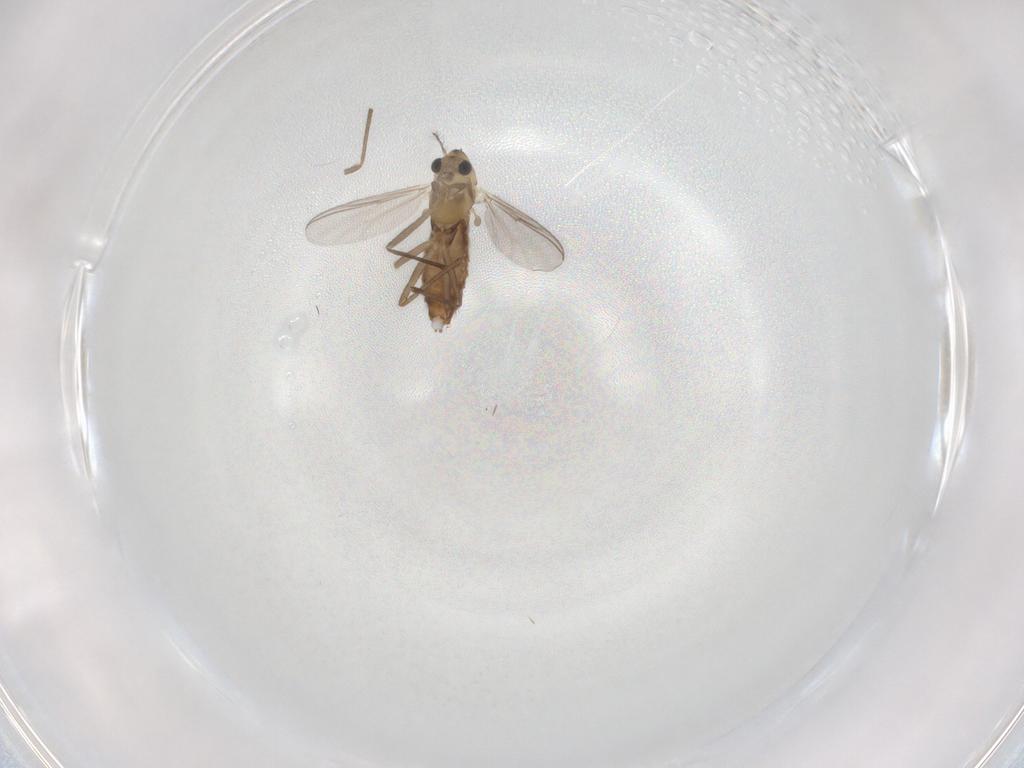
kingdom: Animalia
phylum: Arthropoda
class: Insecta
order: Diptera
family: Chironomidae
